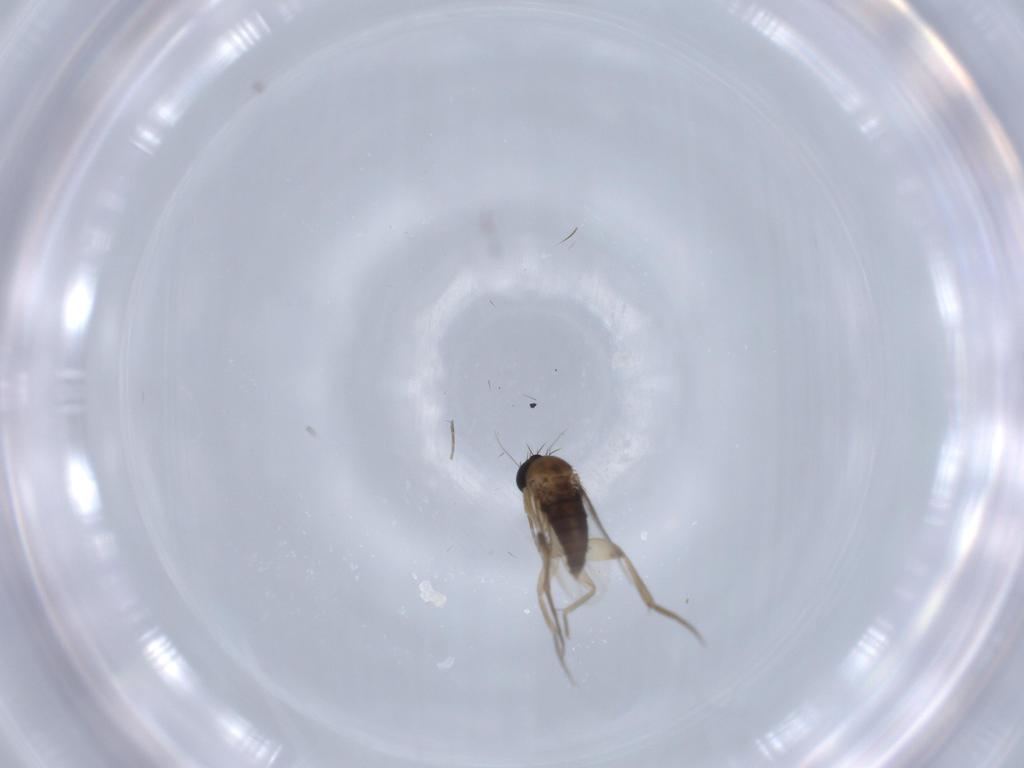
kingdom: Animalia
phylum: Arthropoda
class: Insecta
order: Diptera
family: Phoridae
